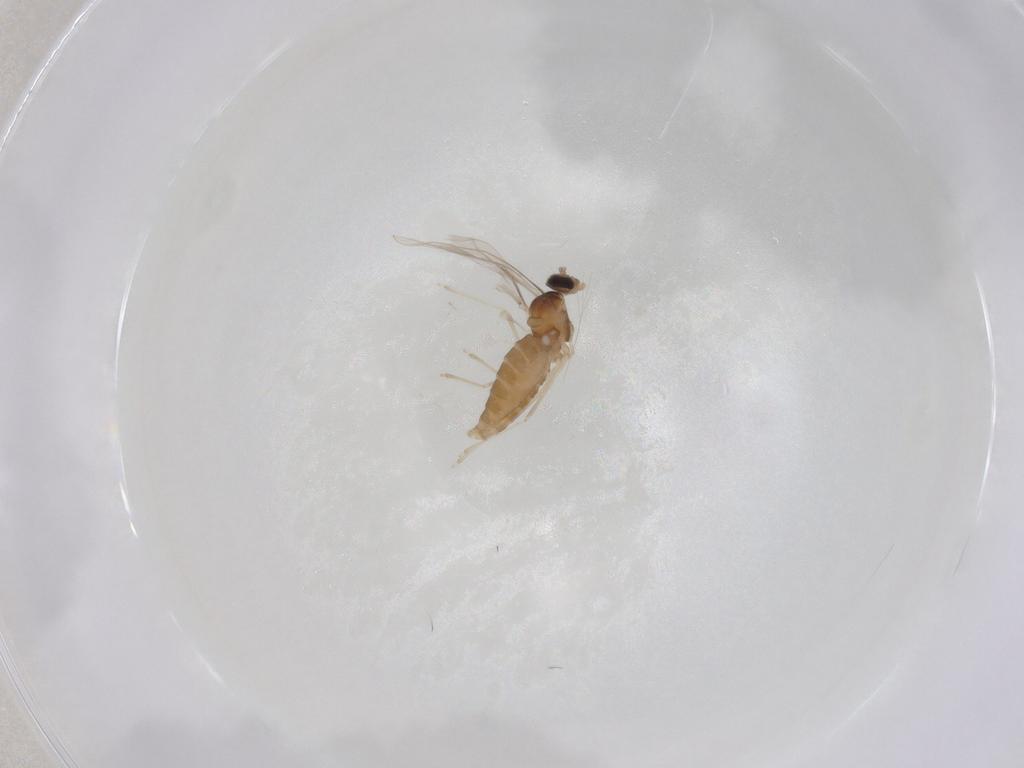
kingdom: Animalia
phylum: Arthropoda
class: Insecta
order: Diptera
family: Cecidomyiidae
